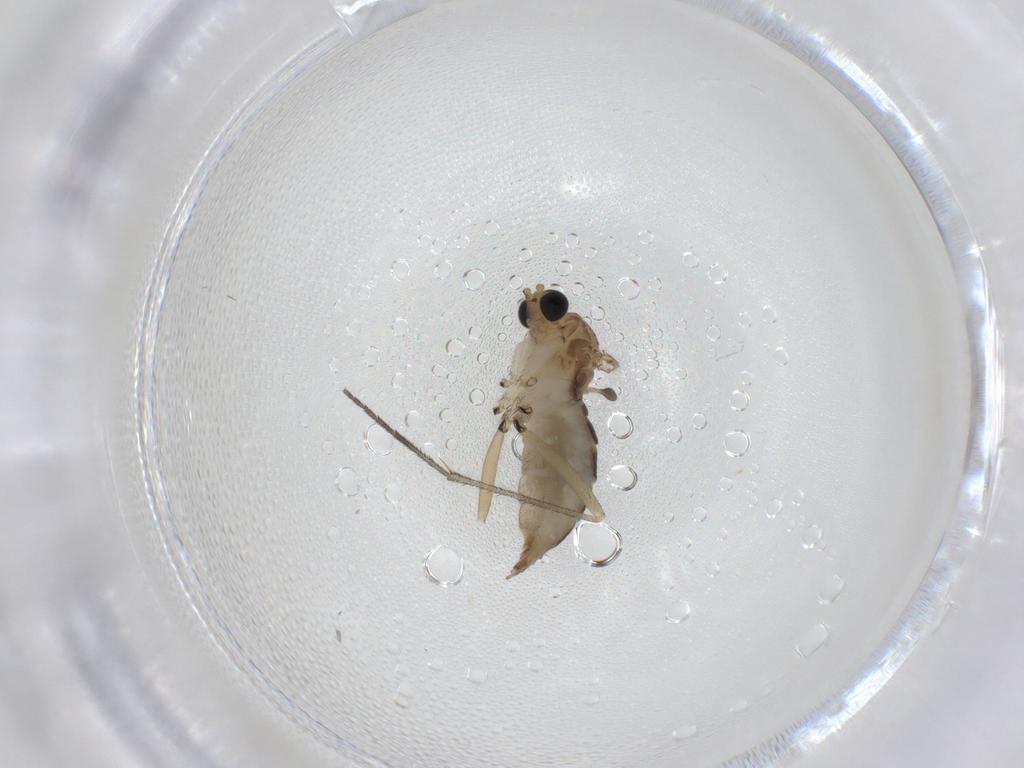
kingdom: Animalia
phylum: Arthropoda
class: Insecta
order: Diptera
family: Sciaridae
